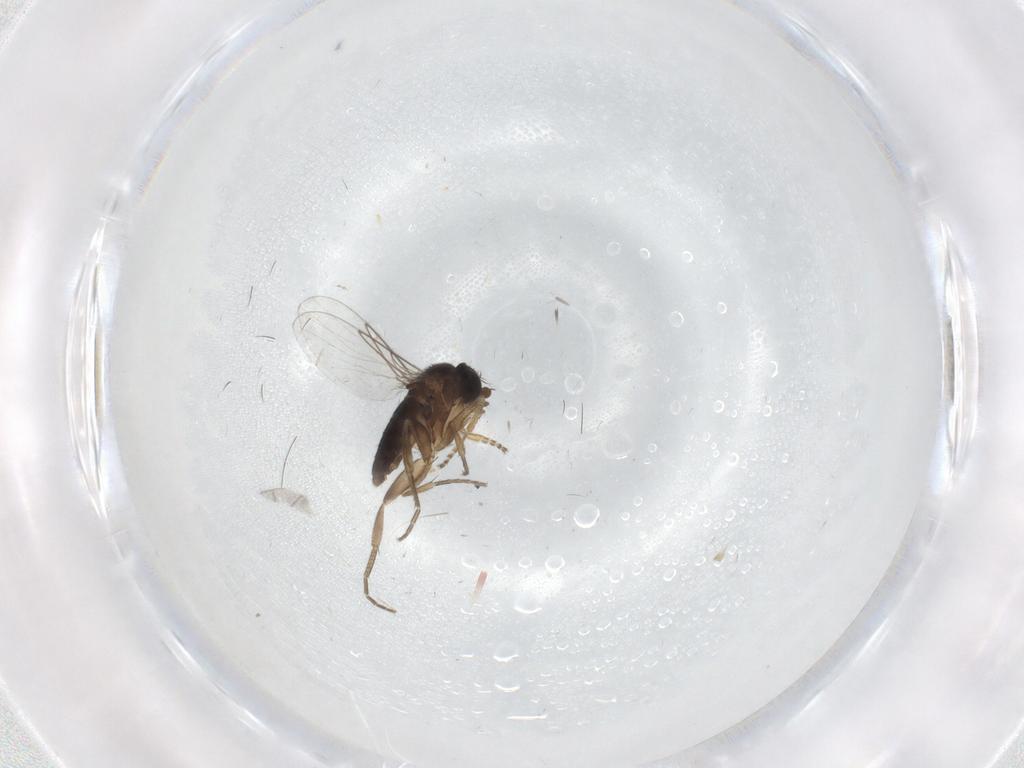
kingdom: Animalia
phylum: Arthropoda
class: Insecta
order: Diptera
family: Phoridae
